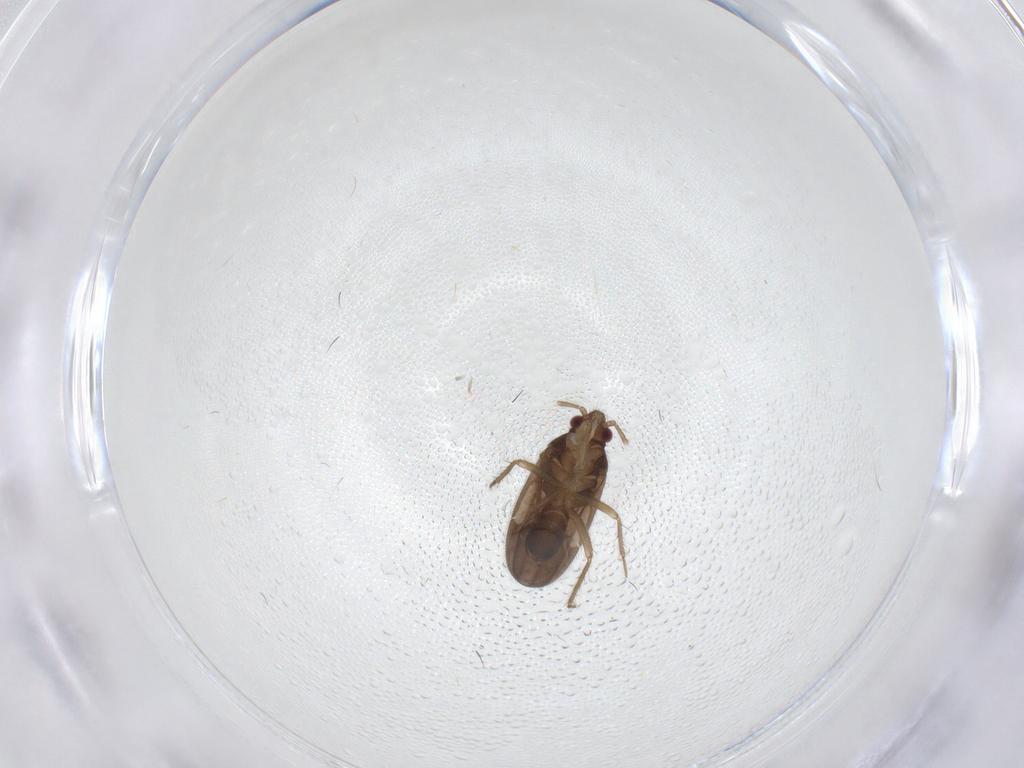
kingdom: Animalia
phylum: Arthropoda
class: Insecta
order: Hemiptera
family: Ceratocombidae
